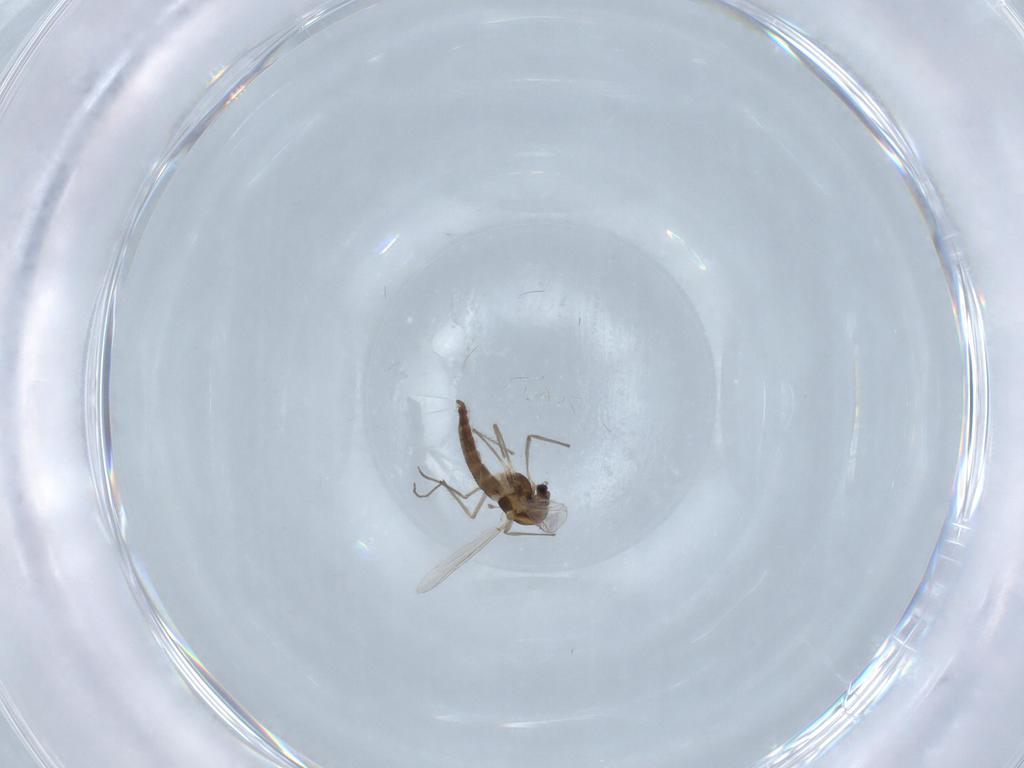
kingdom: Animalia
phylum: Arthropoda
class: Insecta
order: Diptera
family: Chironomidae
